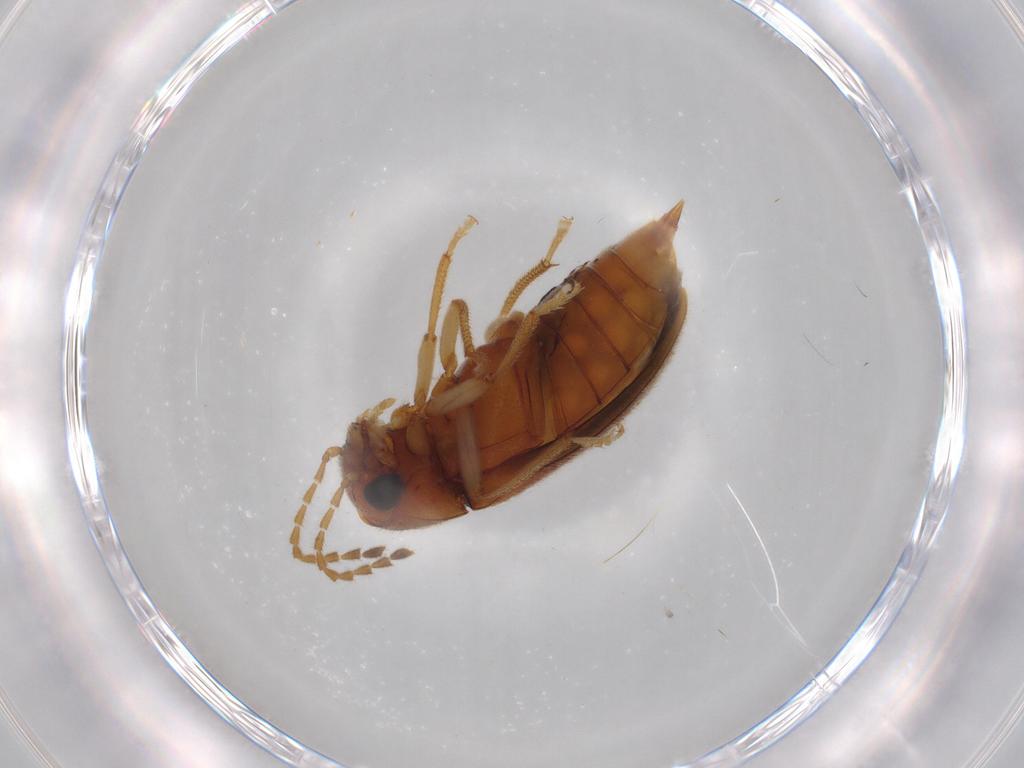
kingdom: Animalia
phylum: Arthropoda
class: Insecta
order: Coleoptera
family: Ptilodactylidae
